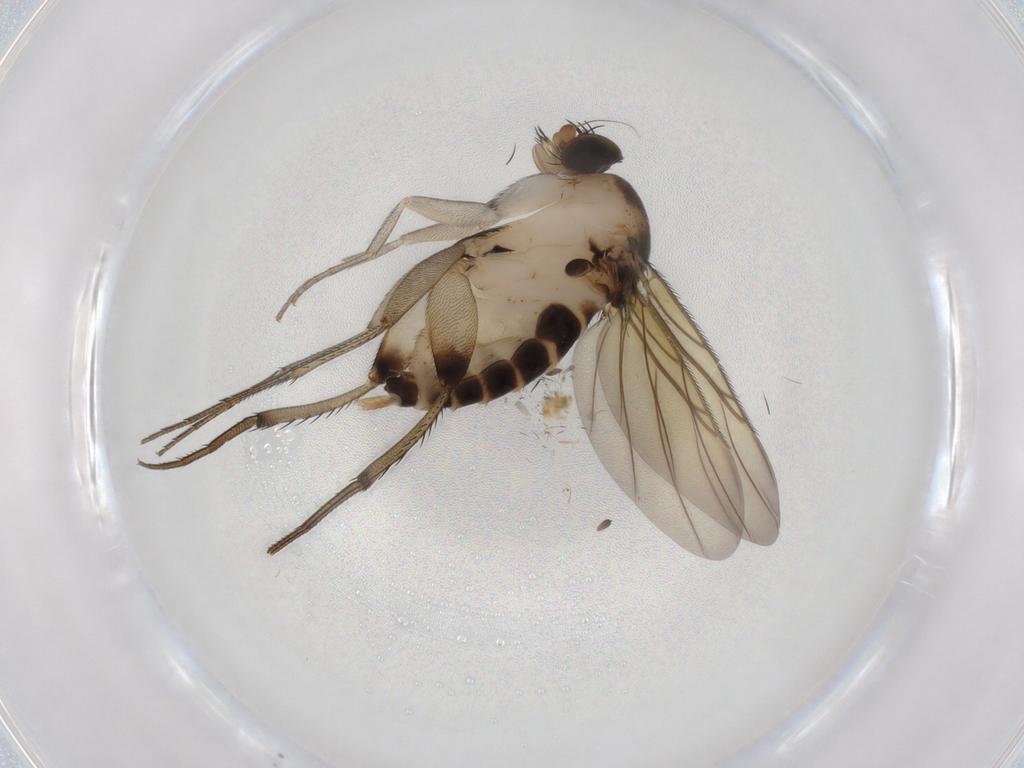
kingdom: Animalia
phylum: Arthropoda
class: Insecta
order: Diptera
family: Phoridae
